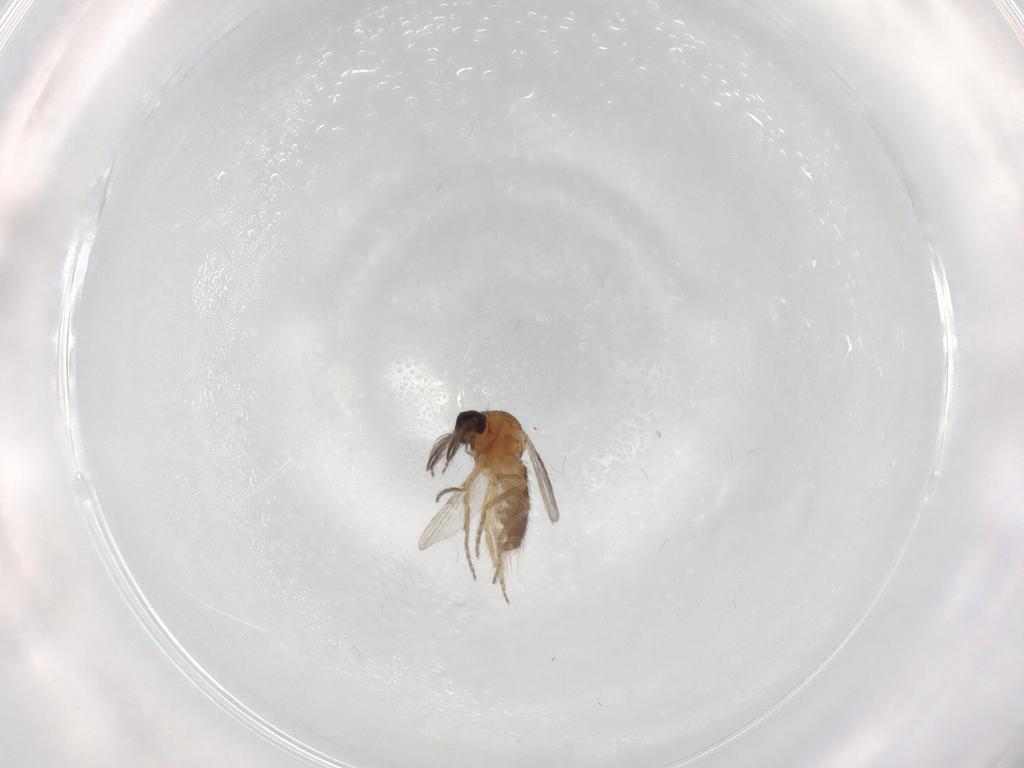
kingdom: Animalia
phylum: Arthropoda
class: Insecta
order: Diptera
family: Ceratopogonidae
